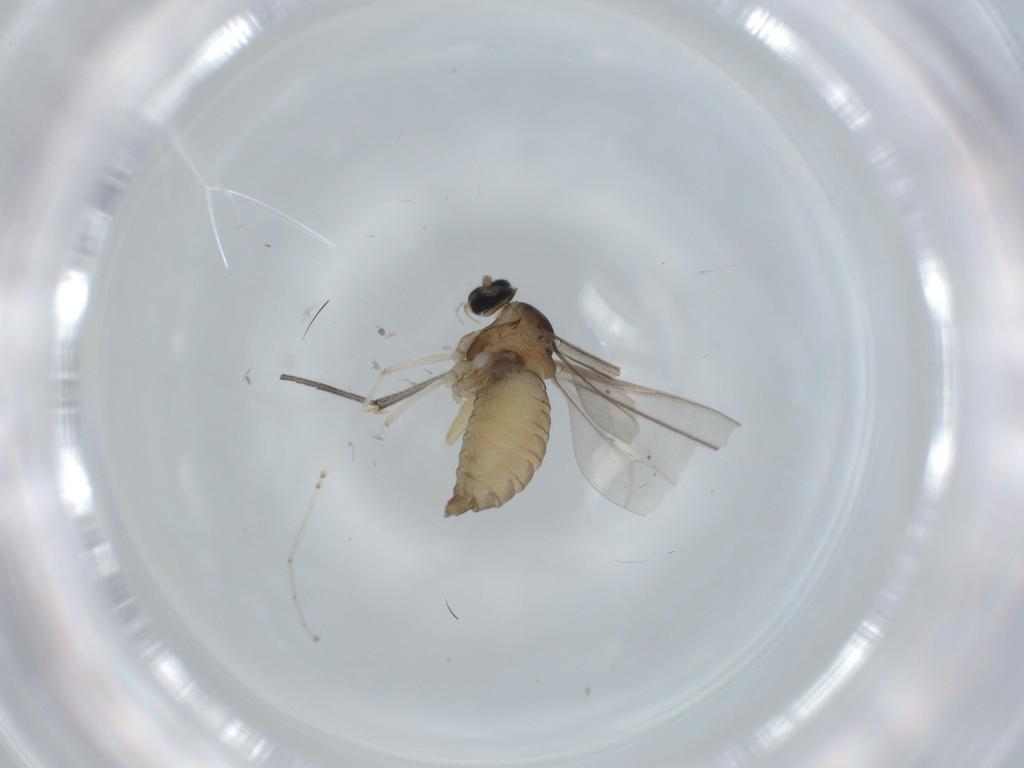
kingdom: Animalia
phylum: Arthropoda
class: Insecta
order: Diptera
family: Sciaridae
